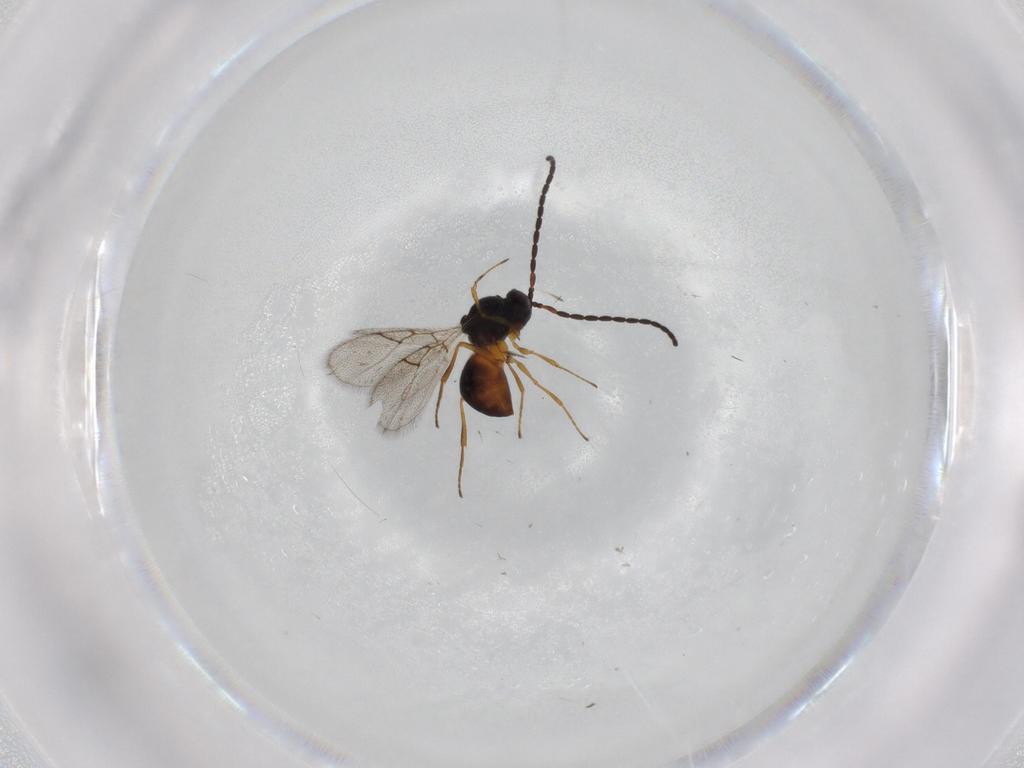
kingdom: Animalia
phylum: Arthropoda
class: Insecta
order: Hymenoptera
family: Figitidae
